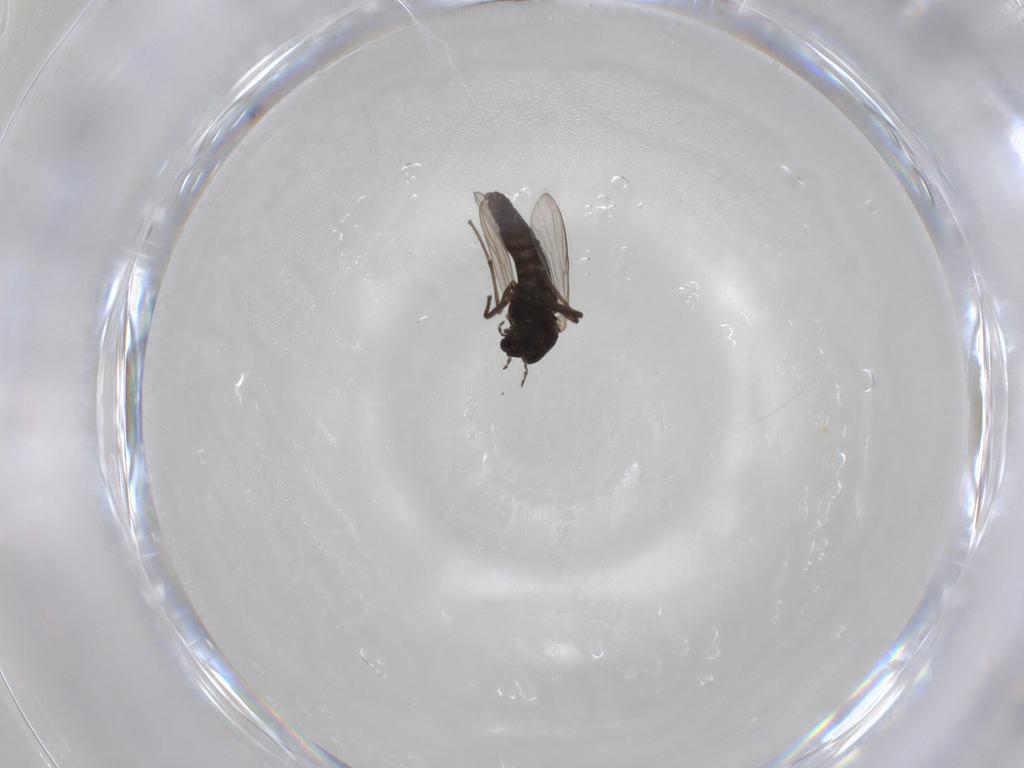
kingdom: Animalia
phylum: Arthropoda
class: Insecta
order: Diptera
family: Chironomidae
